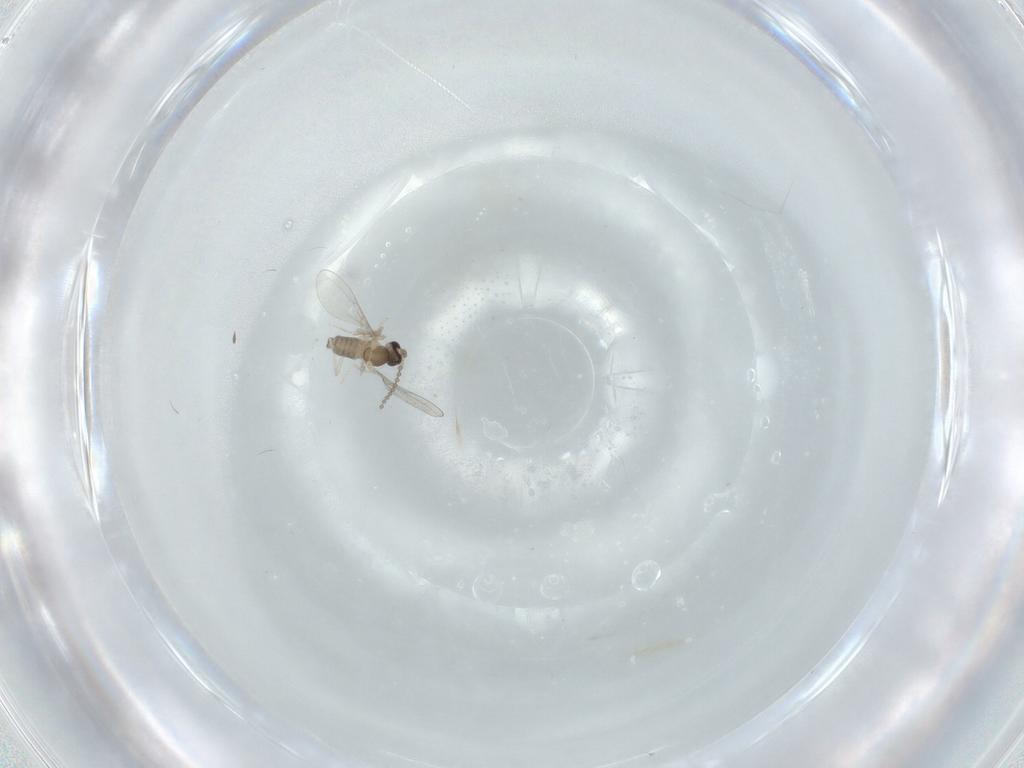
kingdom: Animalia
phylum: Arthropoda
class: Insecta
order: Diptera
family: Cecidomyiidae
